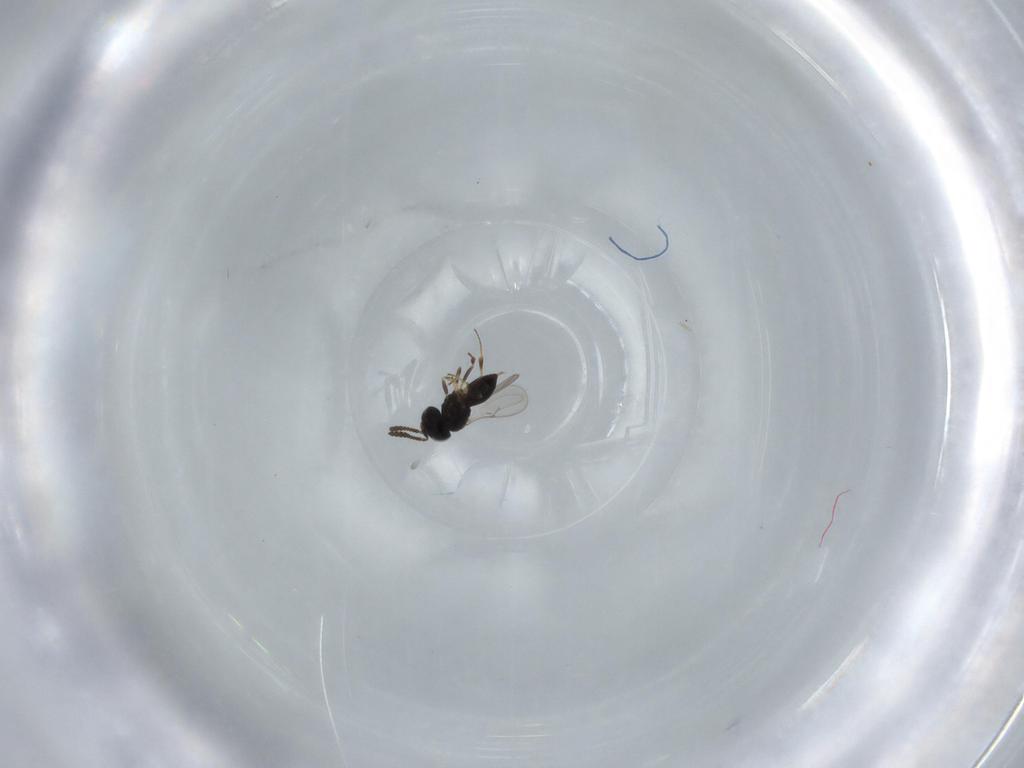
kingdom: Animalia
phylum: Arthropoda
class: Insecta
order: Hymenoptera
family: Scelionidae
